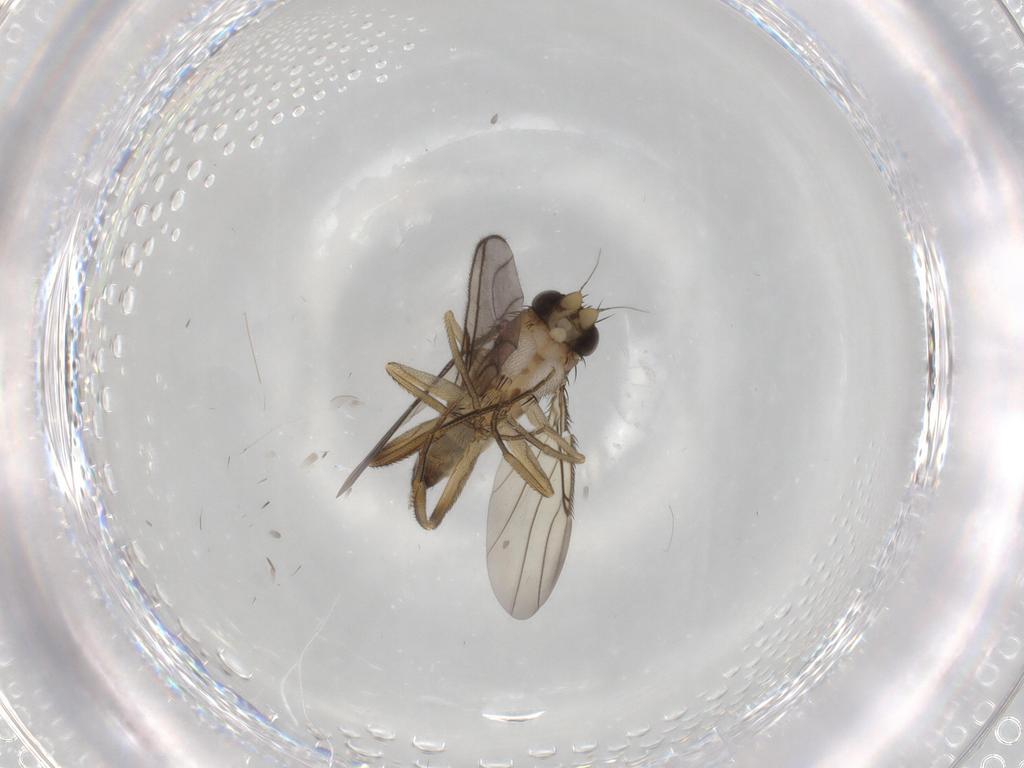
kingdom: Animalia
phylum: Arthropoda
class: Insecta
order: Diptera
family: Phoridae
